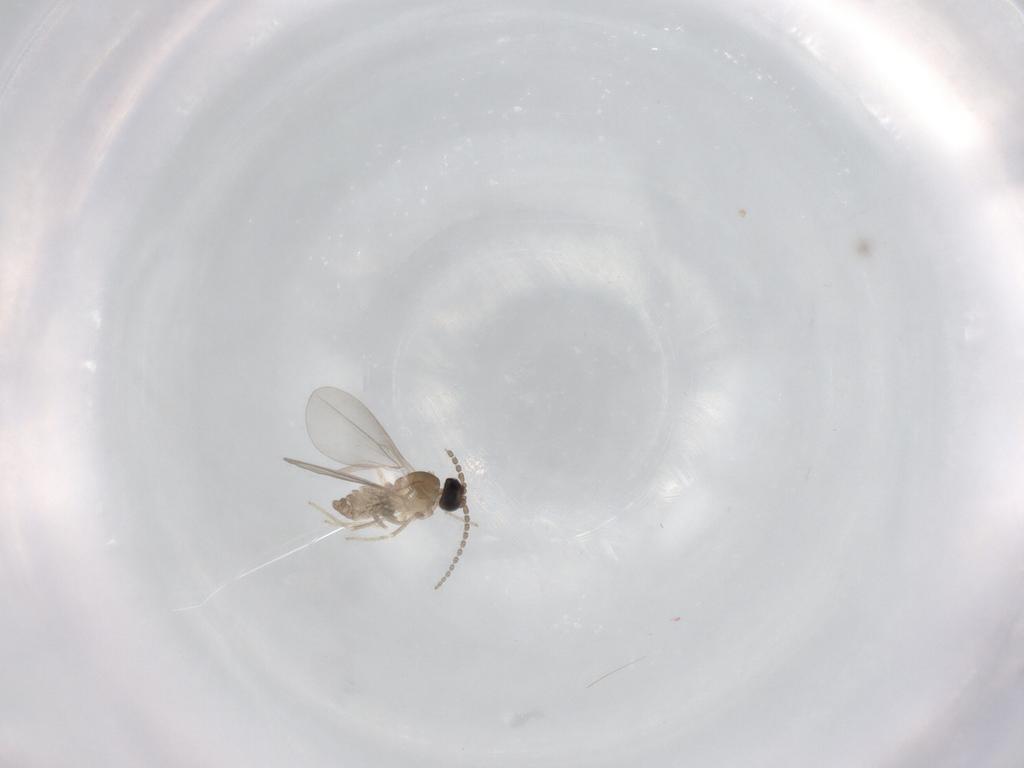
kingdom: Animalia
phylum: Arthropoda
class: Insecta
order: Diptera
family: Cecidomyiidae
